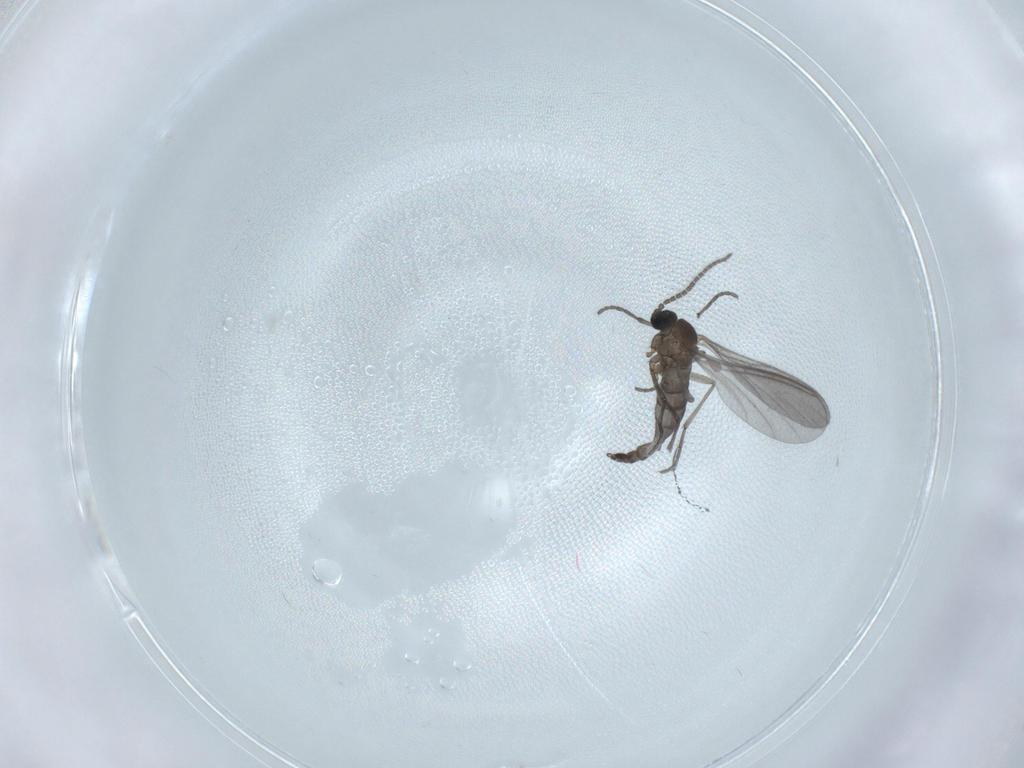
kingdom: Animalia
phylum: Arthropoda
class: Insecta
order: Diptera
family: Sciaridae
